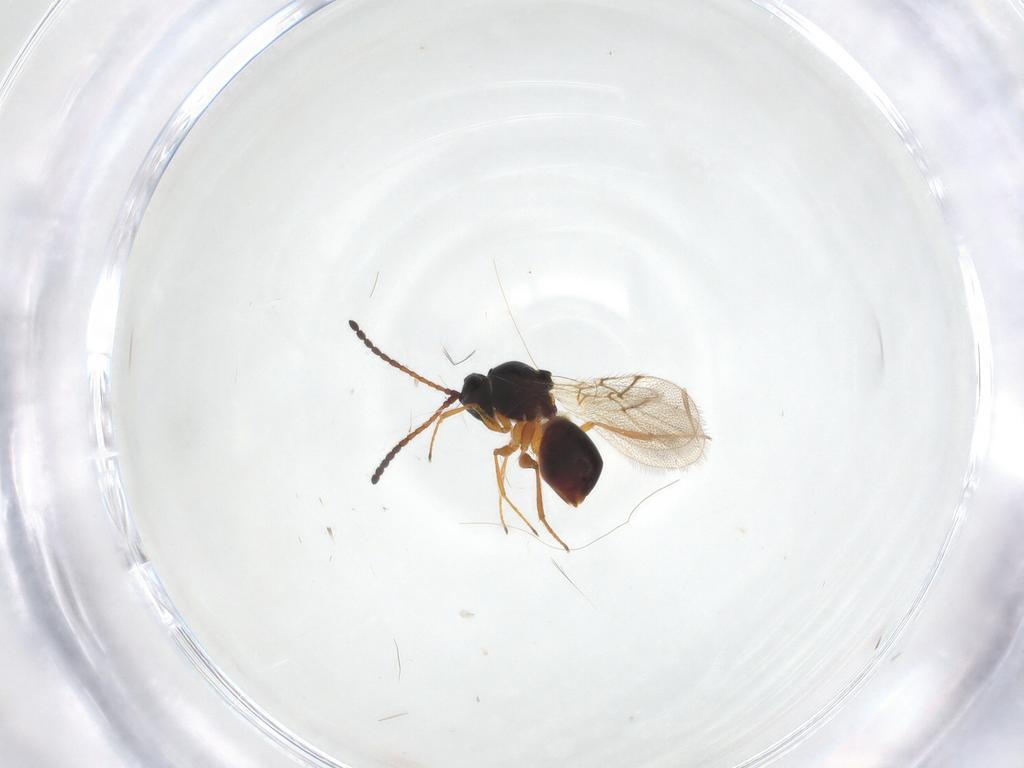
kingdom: Animalia
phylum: Arthropoda
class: Insecta
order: Hymenoptera
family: Figitidae
